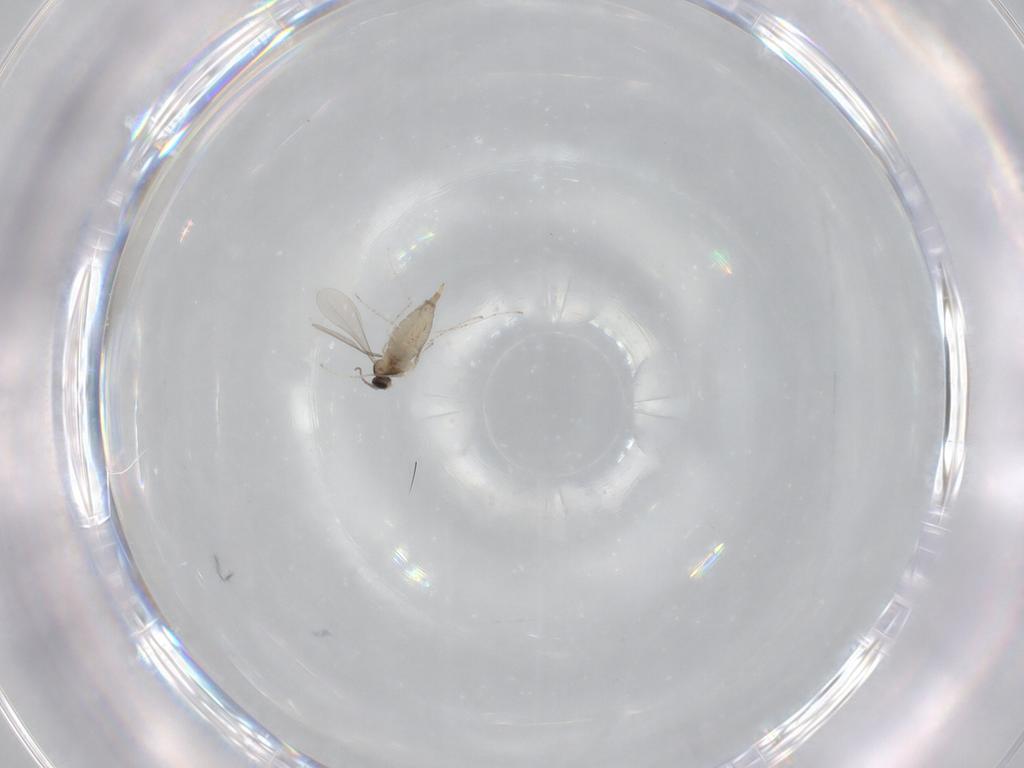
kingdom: Animalia
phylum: Arthropoda
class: Insecta
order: Diptera
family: Cecidomyiidae
